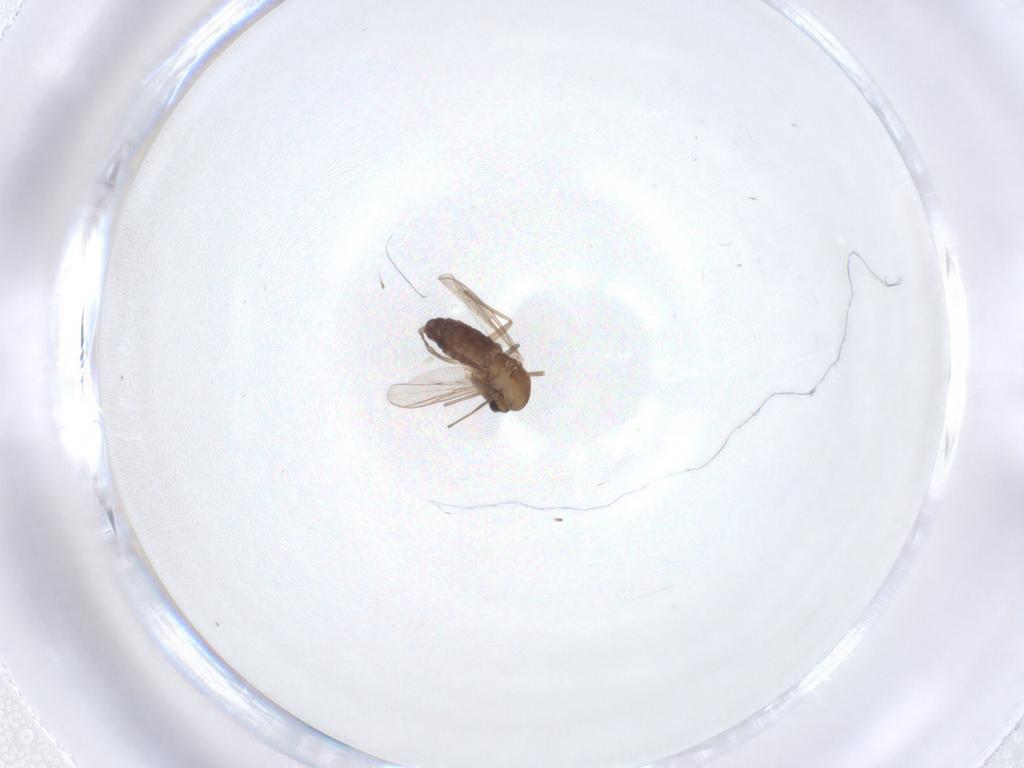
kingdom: Animalia
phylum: Arthropoda
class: Insecta
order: Diptera
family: Chironomidae
